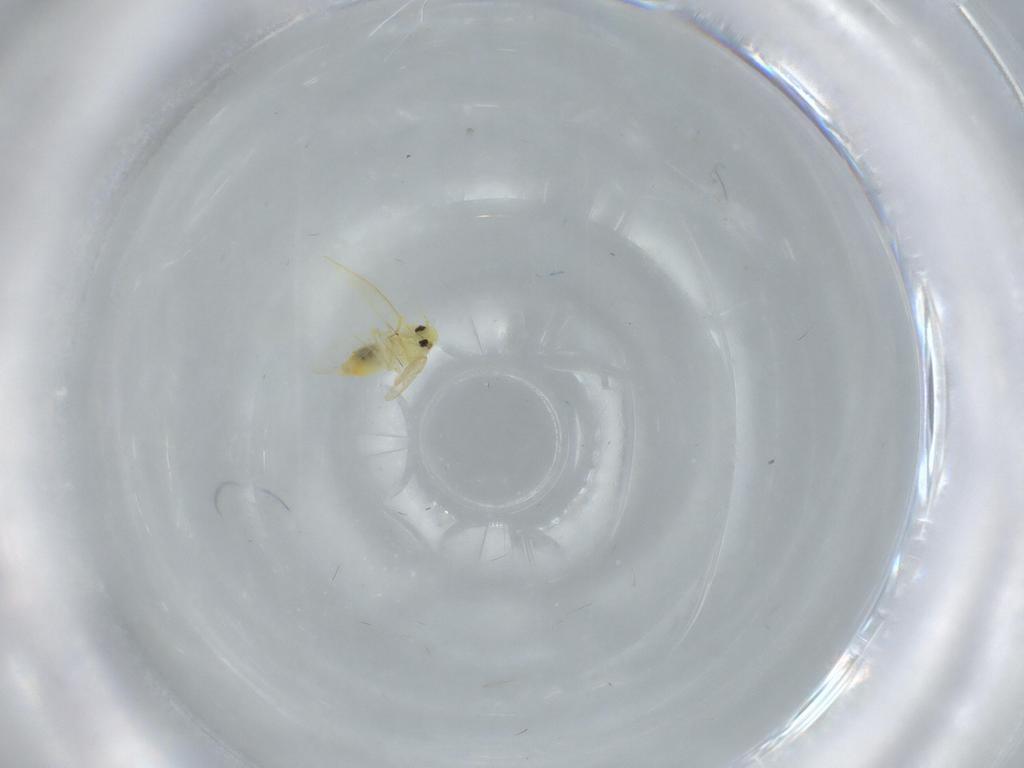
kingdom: Animalia
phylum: Arthropoda
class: Insecta
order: Hemiptera
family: Aleyrodidae
